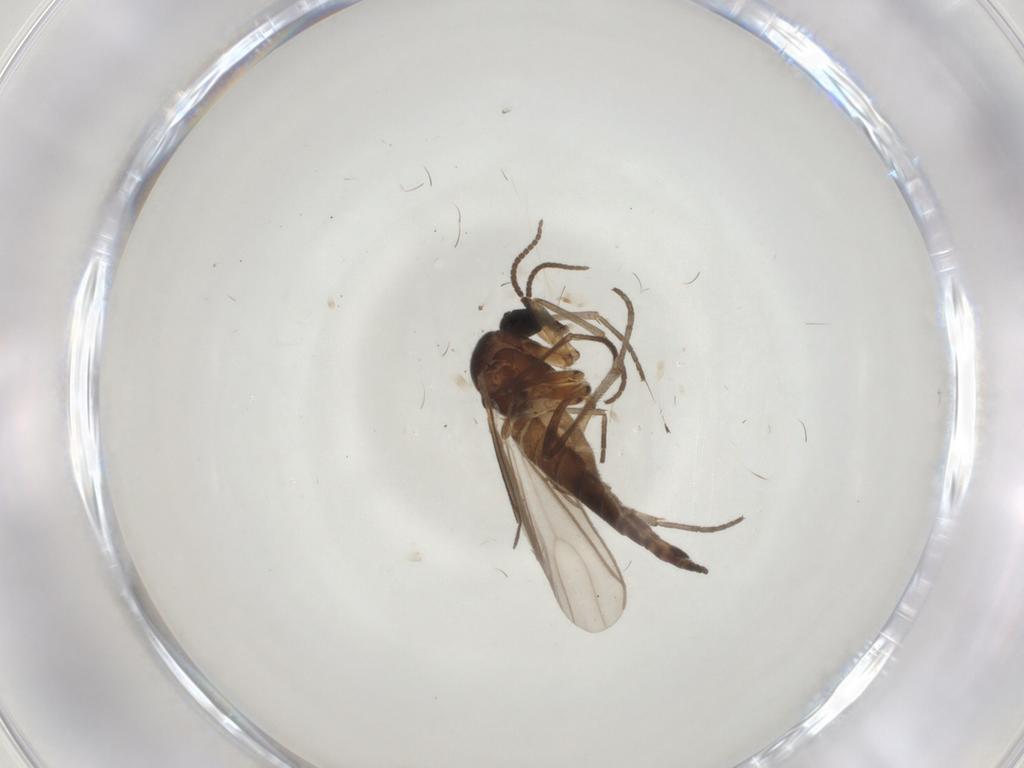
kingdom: Animalia
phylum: Arthropoda
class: Insecta
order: Diptera
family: Sciaridae
